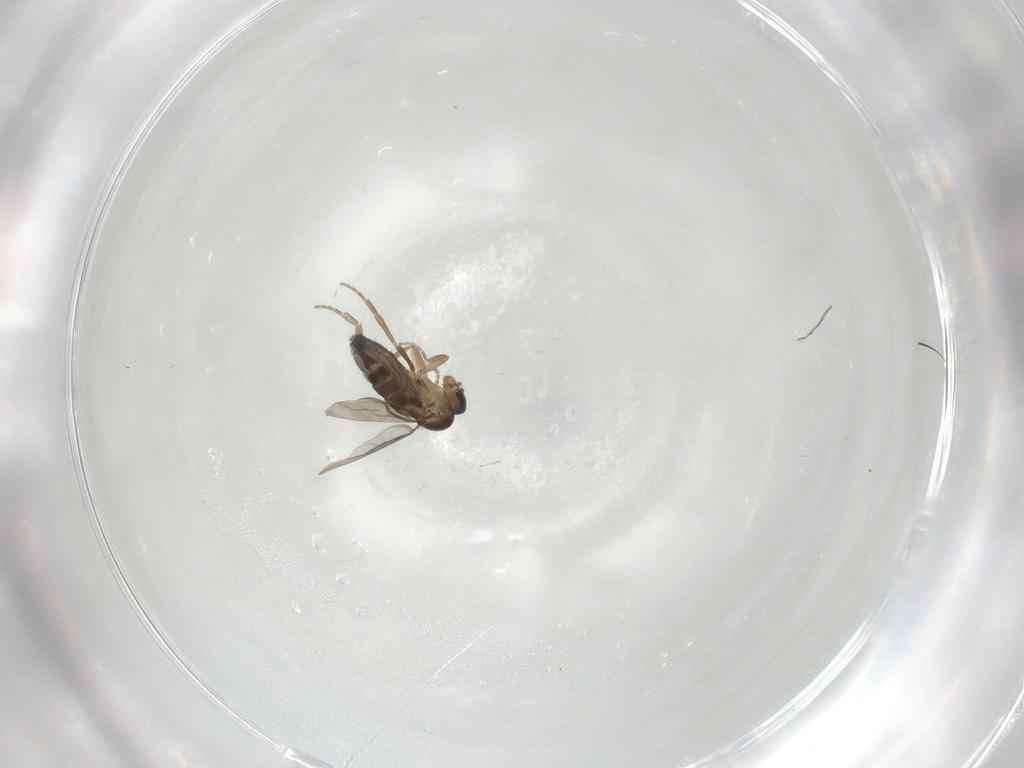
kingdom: Animalia
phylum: Arthropoda
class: Insecta
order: Diptera
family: Phoridae
